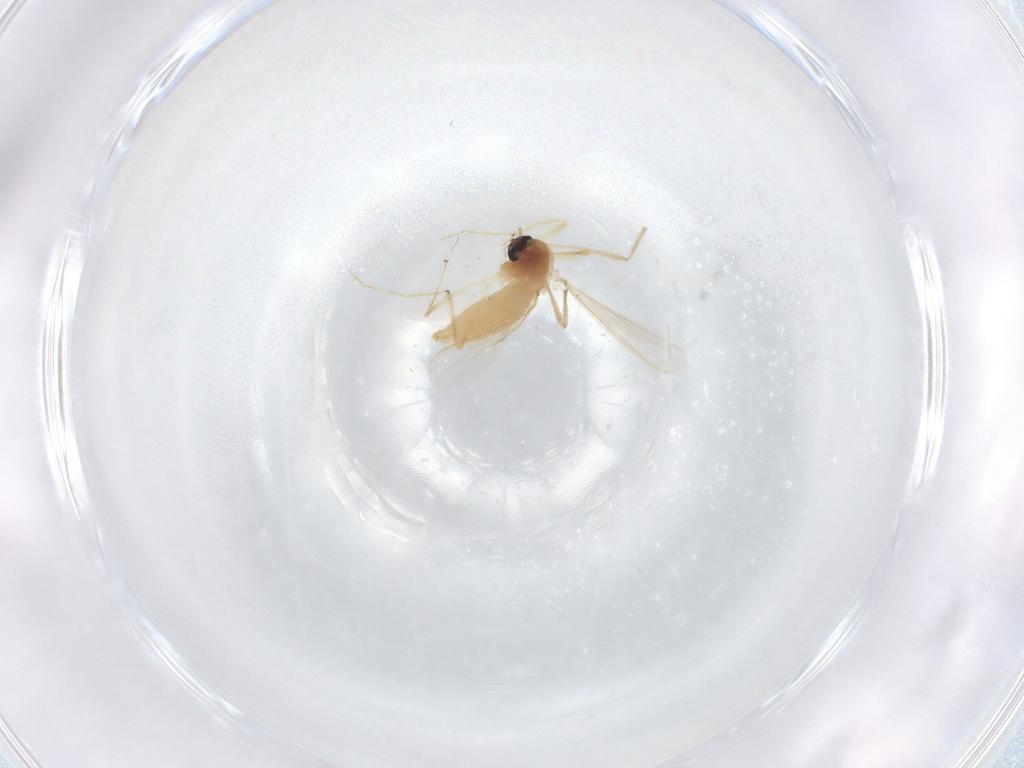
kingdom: Animalia
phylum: Arthropoda
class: Insecta
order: Diptera
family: Chironomidae
